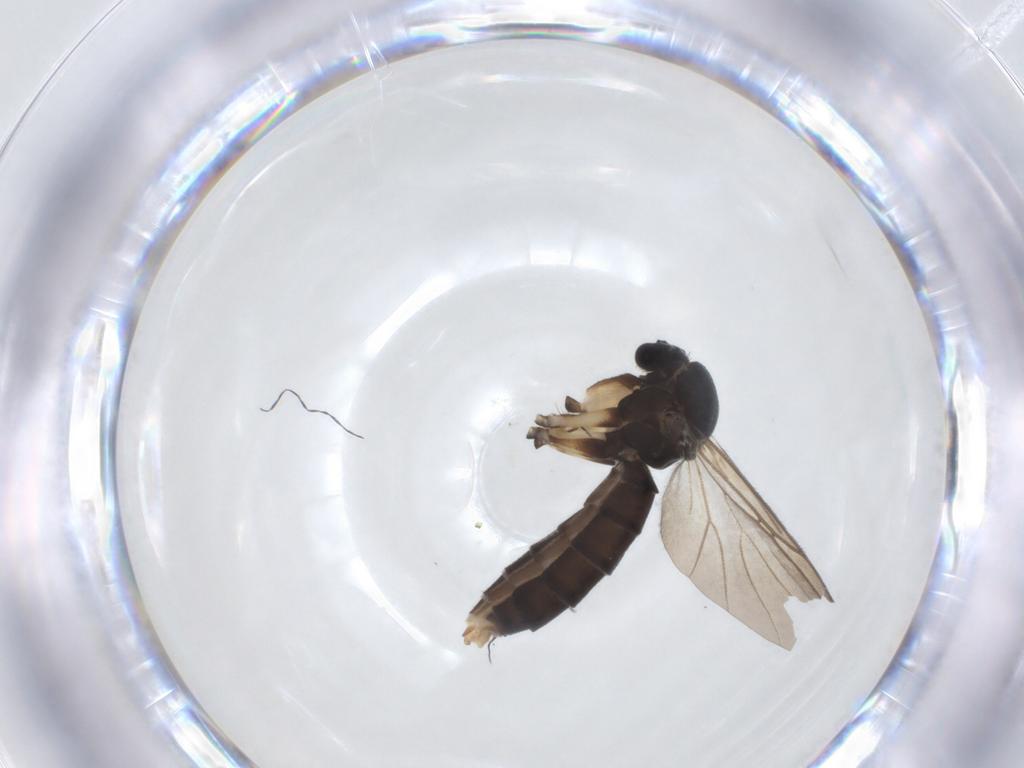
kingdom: Animalia
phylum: Arthropoda
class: Insecta
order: Diptera
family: Mycetophilidae
